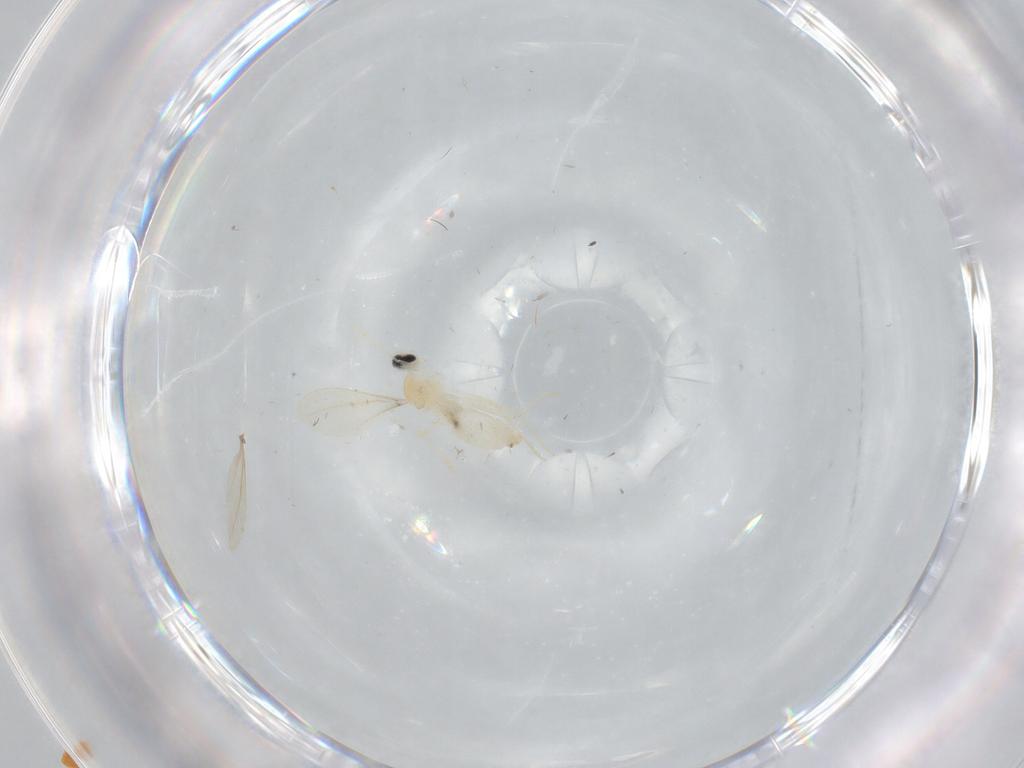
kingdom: Animalia
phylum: Arthropoda
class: Insecta
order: Diptera
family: Cecidomyiidae
